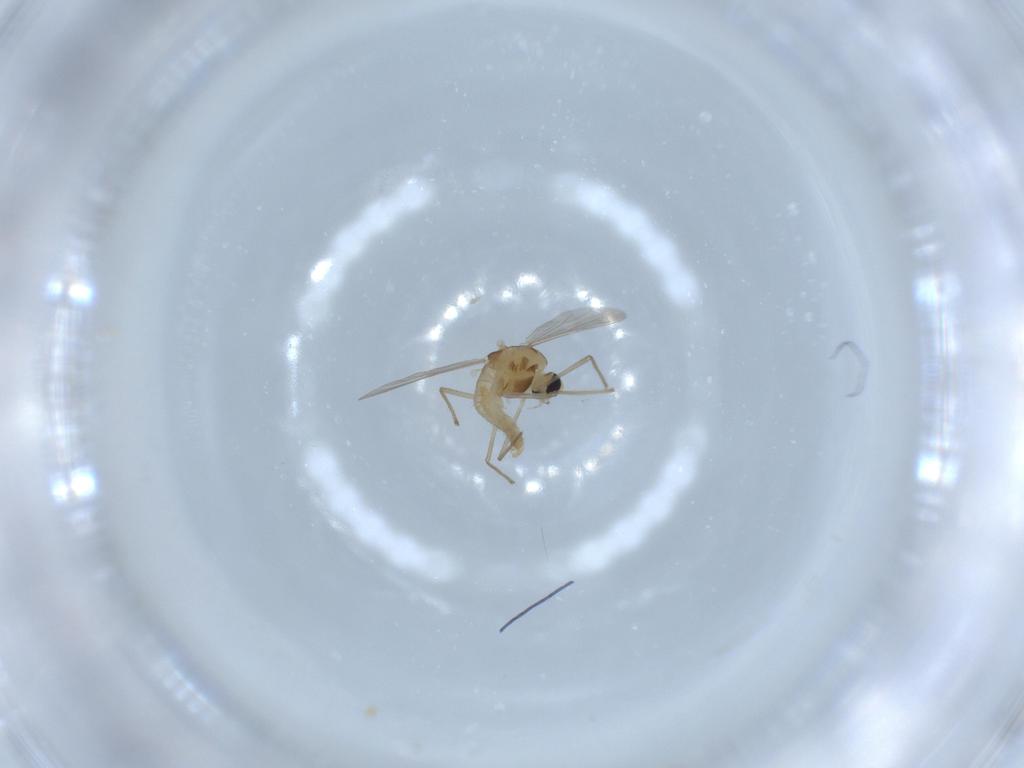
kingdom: Animalia
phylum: Arthropoda
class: Insecta
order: Diptera
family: Chironomidae
